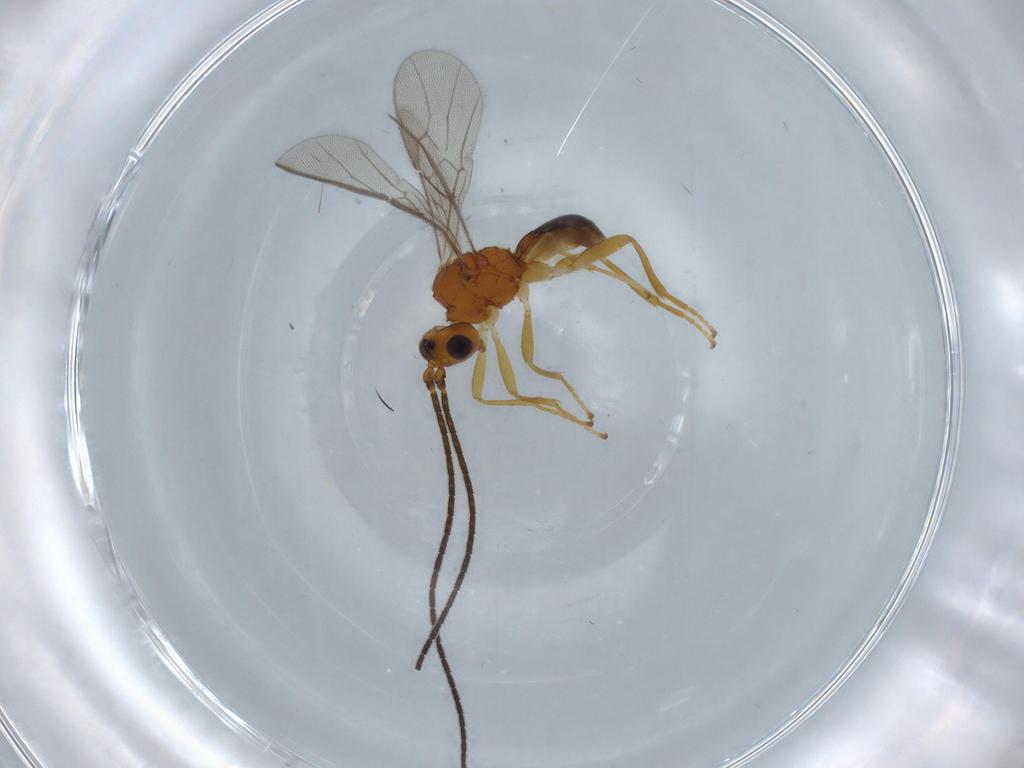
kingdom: Animalia
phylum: Arthropoda
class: Insecta
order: Hymenoptera
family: Braconidae
